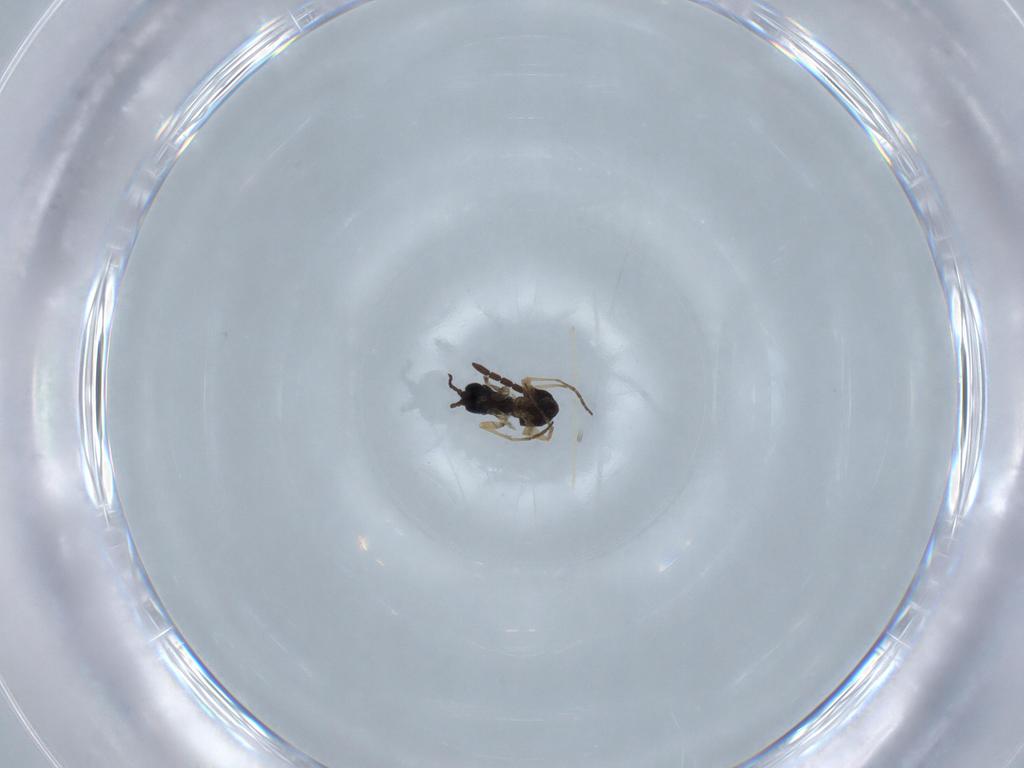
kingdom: Animalia
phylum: Arthropoda
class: Insecta
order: Hymenoptera
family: Braconidae
